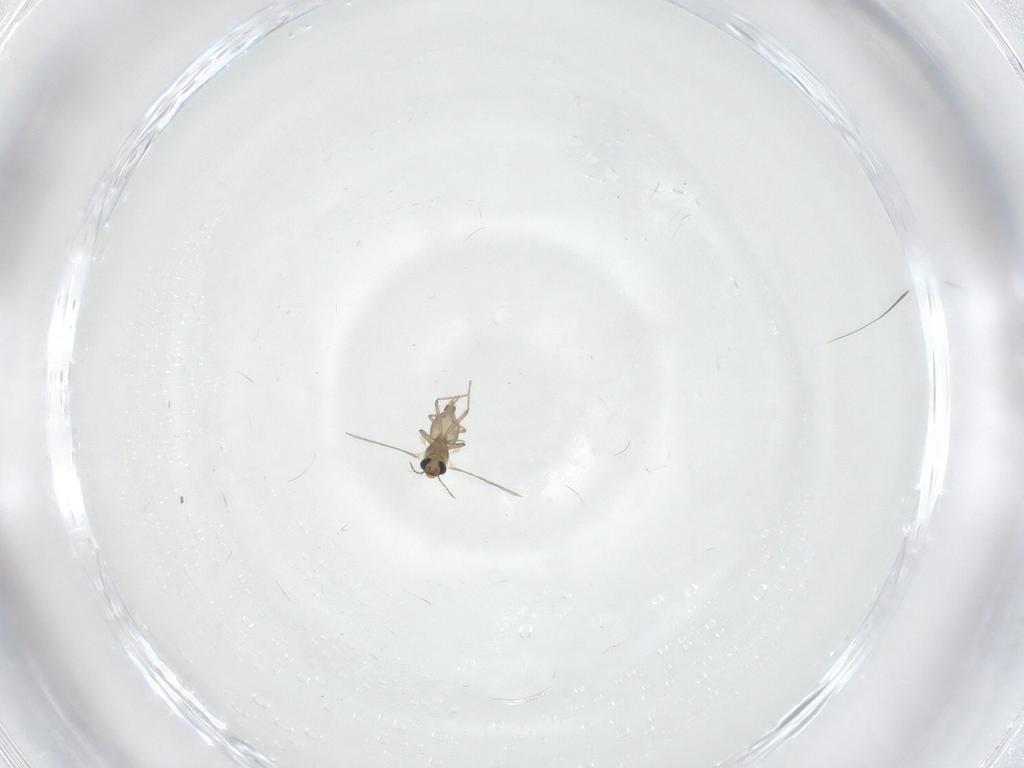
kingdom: Animalia
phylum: Arthropoda
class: Insecta
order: Diptera
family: Chironomidae
